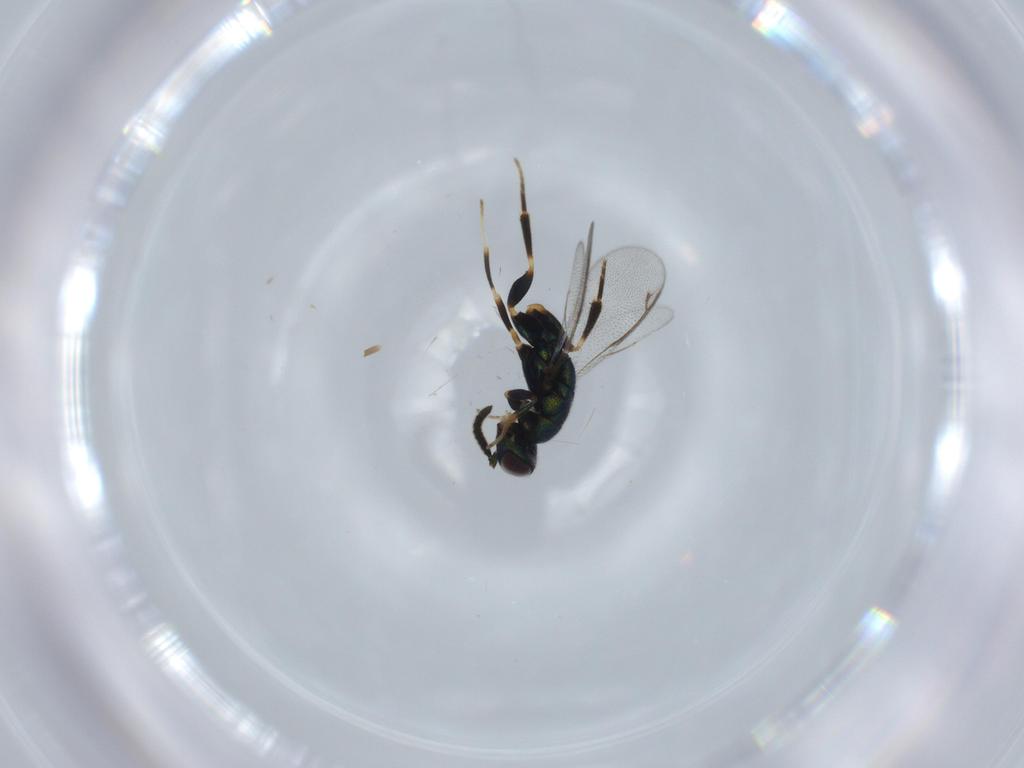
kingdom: Animalia
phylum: Arthropoda
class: Insecta
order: Hymenoptera
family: Cleonyminae
